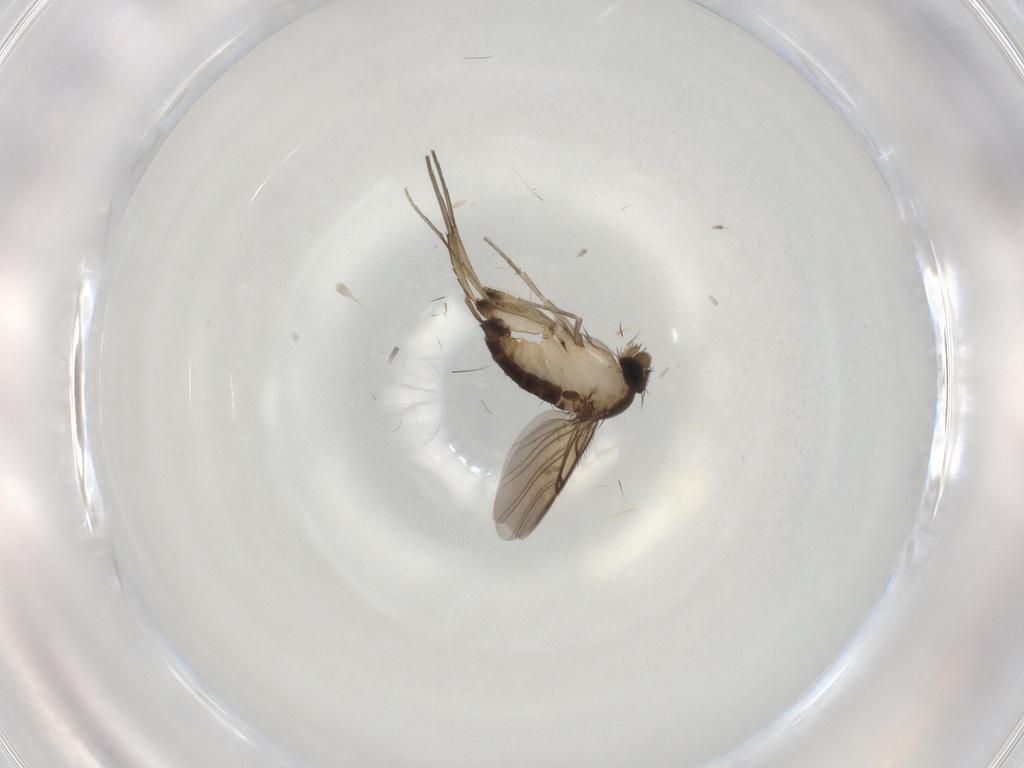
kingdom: Animalia
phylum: Arthropoda
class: Insecta
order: Diptera
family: Phoridae
